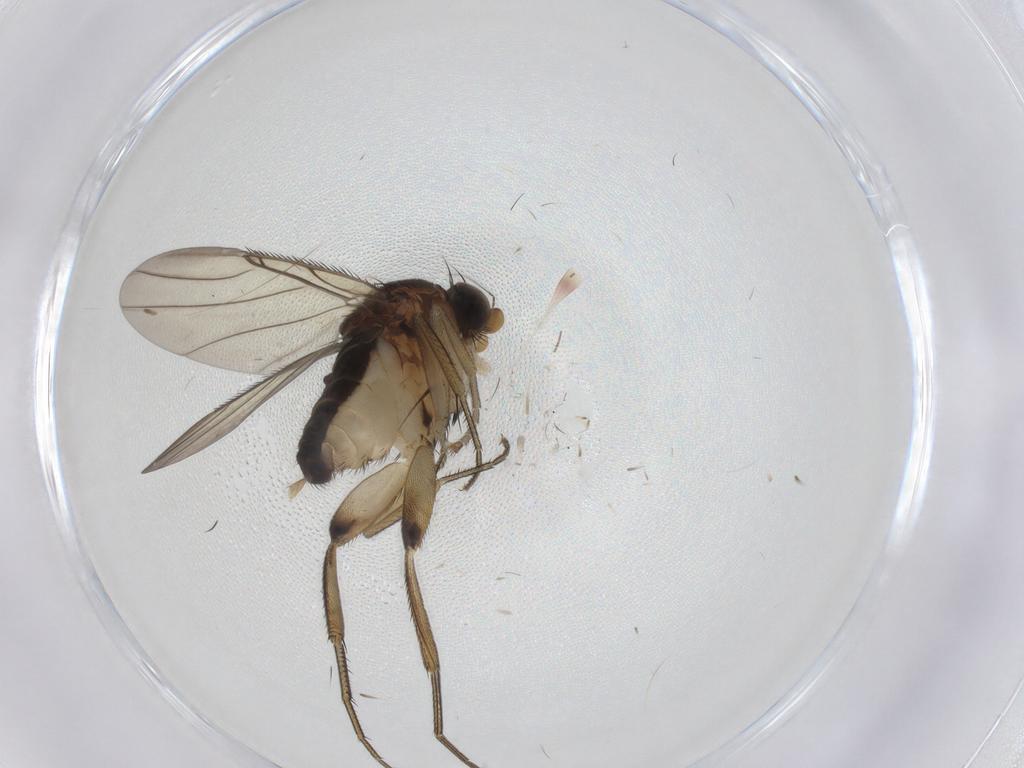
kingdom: Animalia
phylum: Arthropoda
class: Insecta
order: Diptera
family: Phoridae
